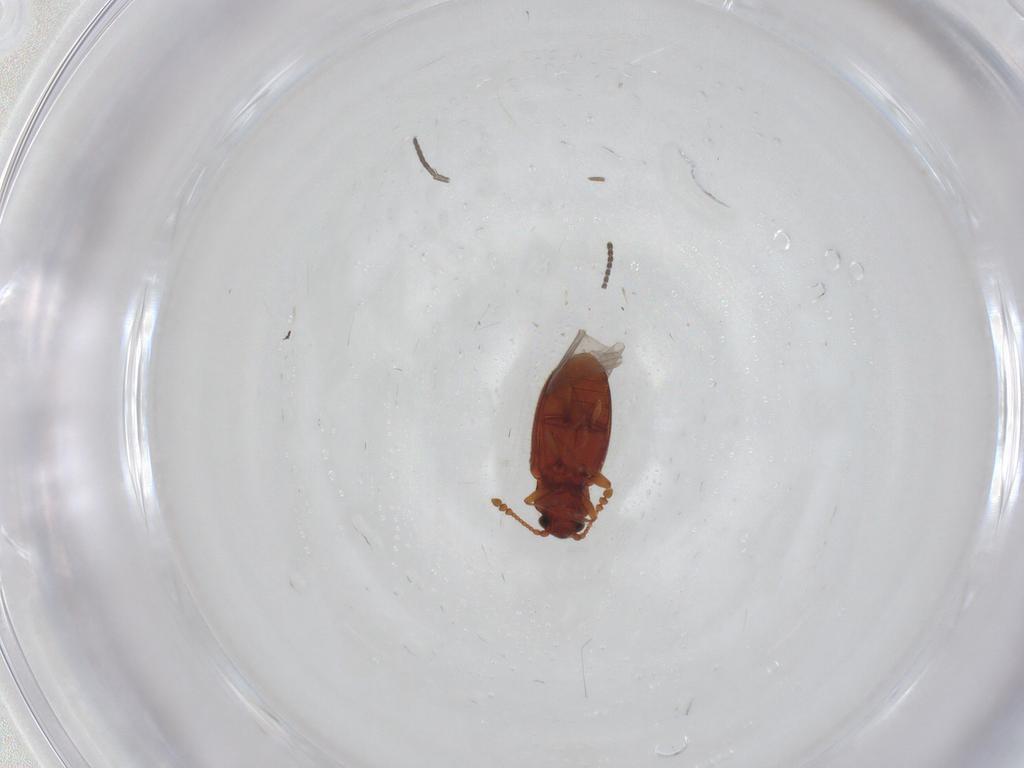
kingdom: Animalia
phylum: Arthropoda
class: Insecta
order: Coleoptera
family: Cryptophagidae
